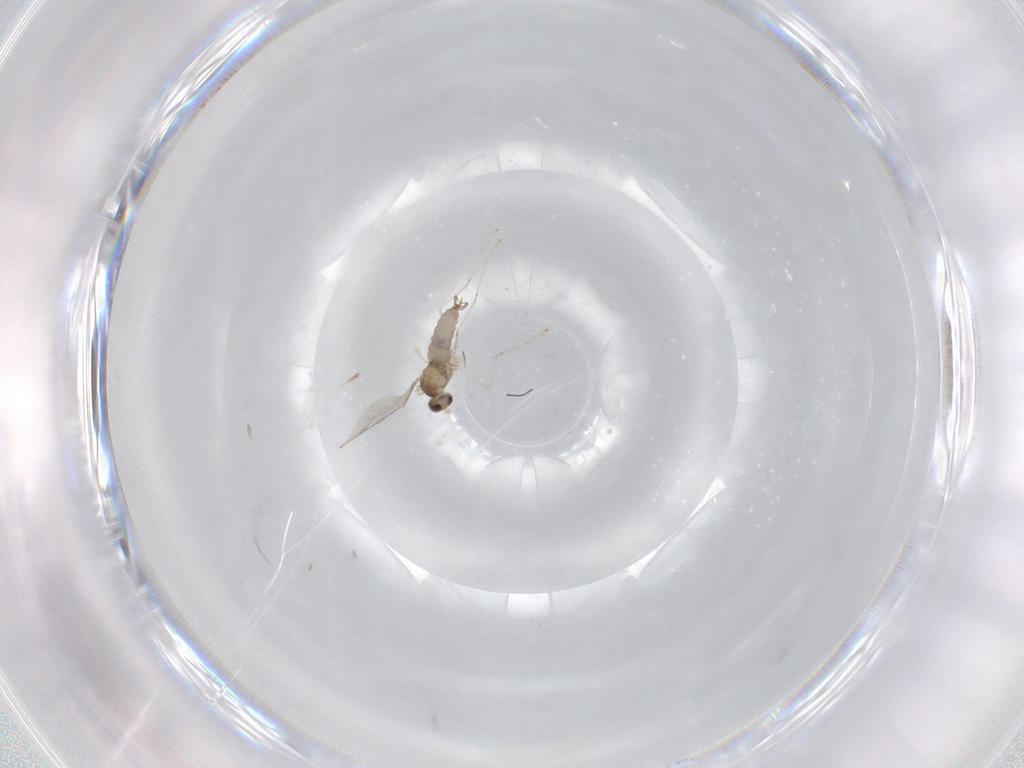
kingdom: Animalia
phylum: Arthropoda
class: Insecta
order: Diptera
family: Cecidomyiidae
